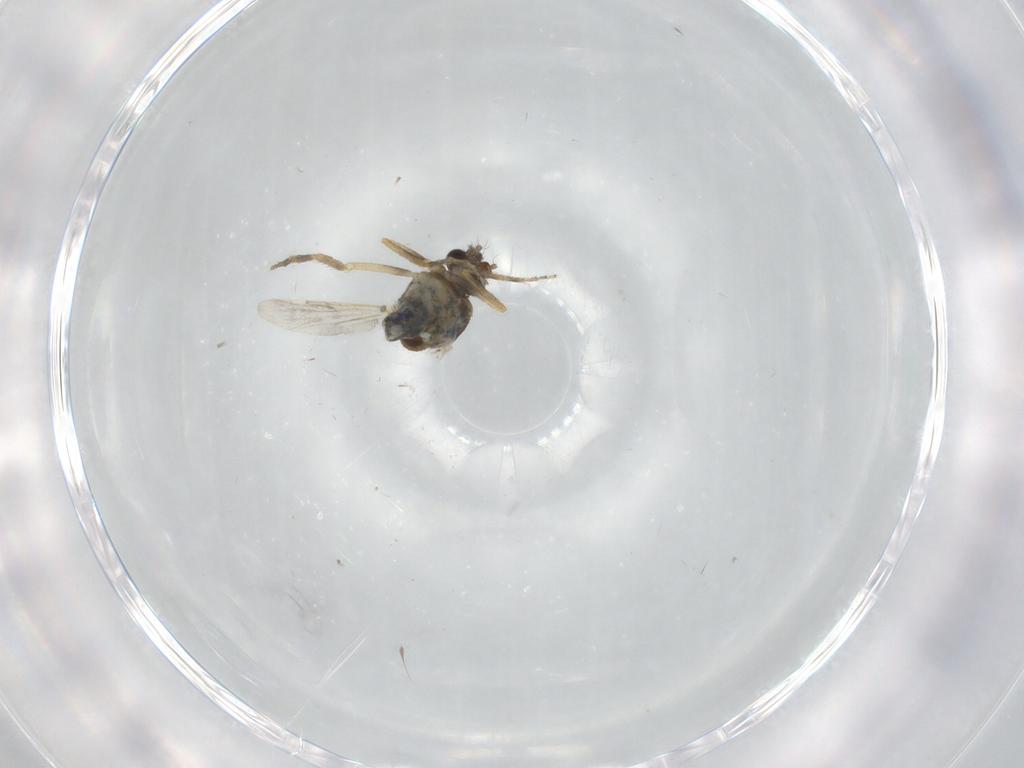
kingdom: Animalia
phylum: Arthropoda
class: Insecta
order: Diptera
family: Ceratopogonidae
